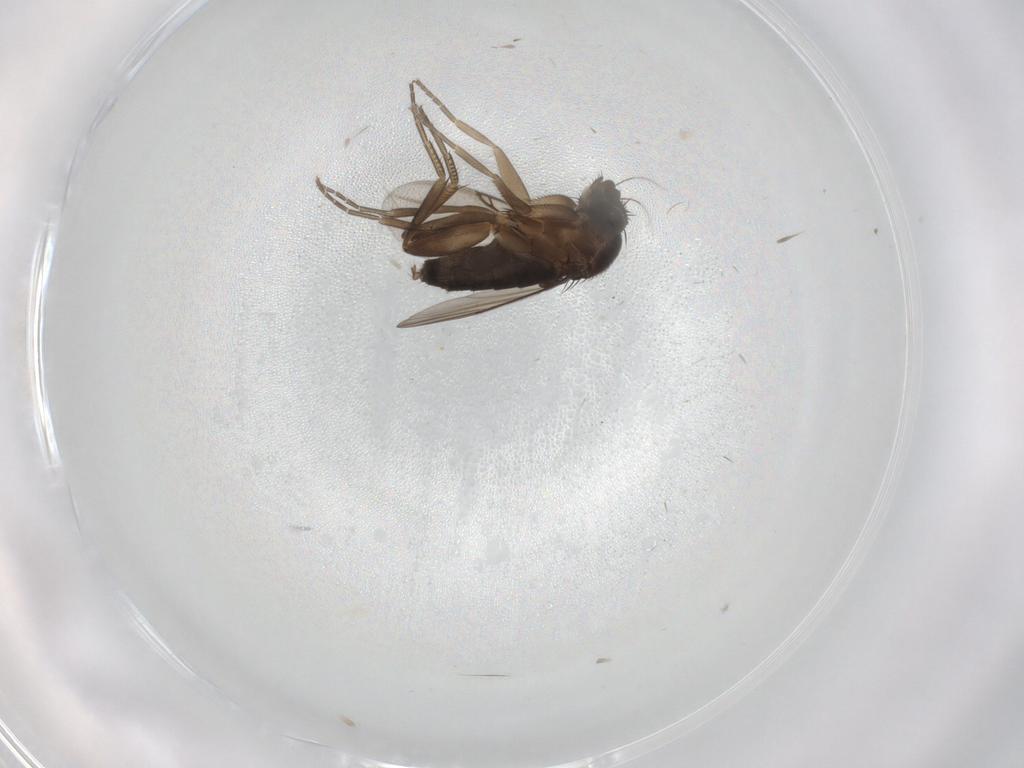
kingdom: Animalia
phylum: Arthropoda
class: Insecta
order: Diptera
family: Phoridae
